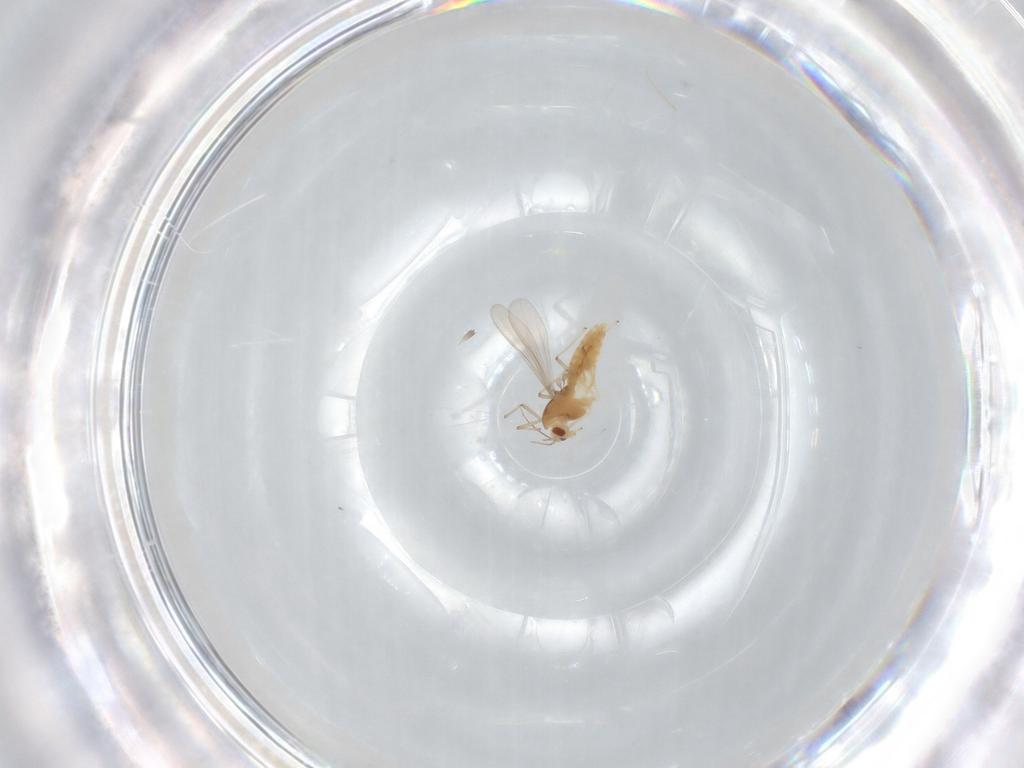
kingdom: Animalia
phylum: Arthropoda
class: Insecta
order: Diptera
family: Chironomidae
